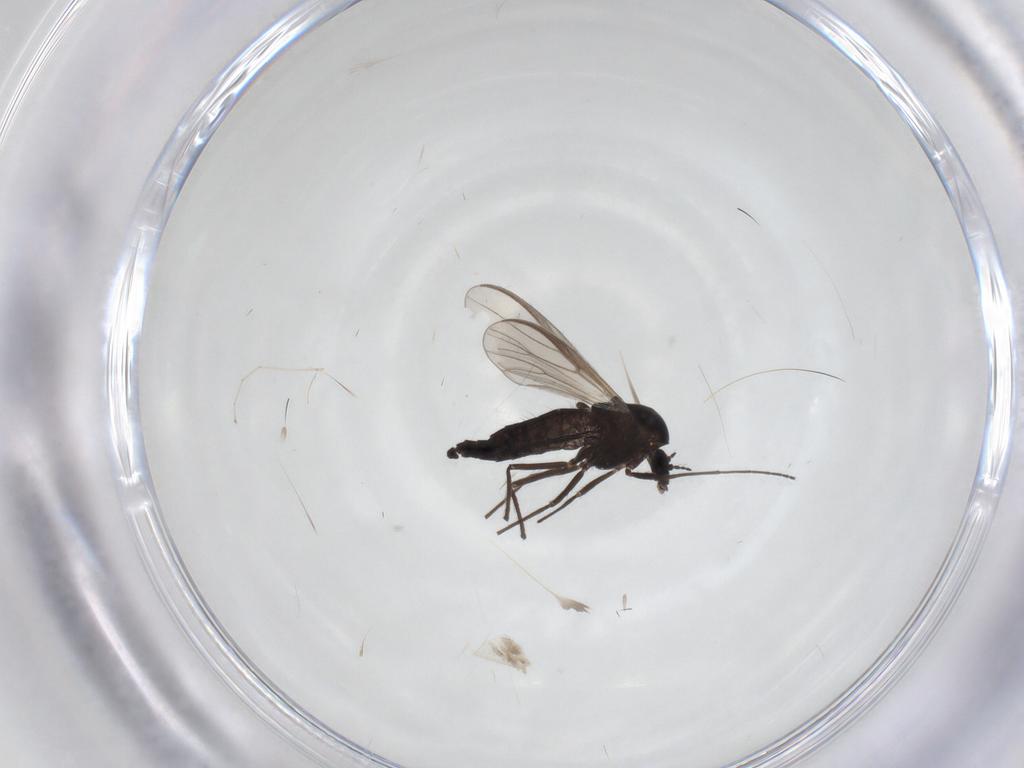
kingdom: Animalia
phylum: Arthropoda
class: Insecta
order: Diptera
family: Chironomidae
